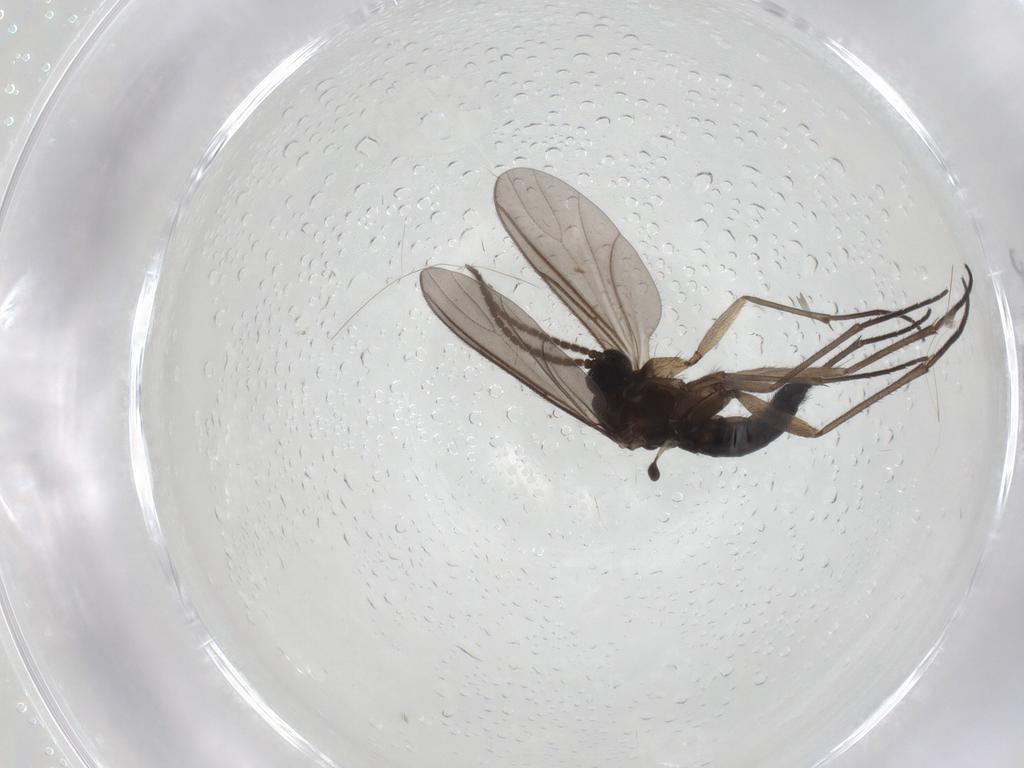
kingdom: Animalia
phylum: Arthropoda
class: Insecta
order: Diptera
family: Sciaridae
